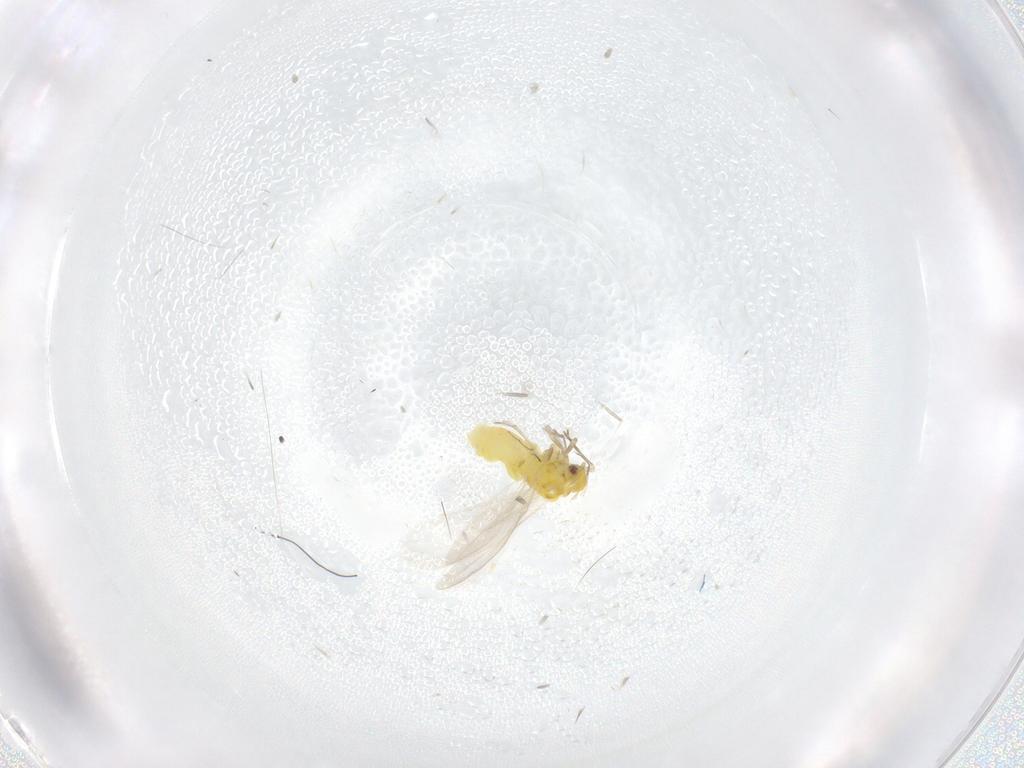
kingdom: Animalia
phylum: Arthropoda
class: Insecta
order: Hemiptera
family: Aleyrodidae
